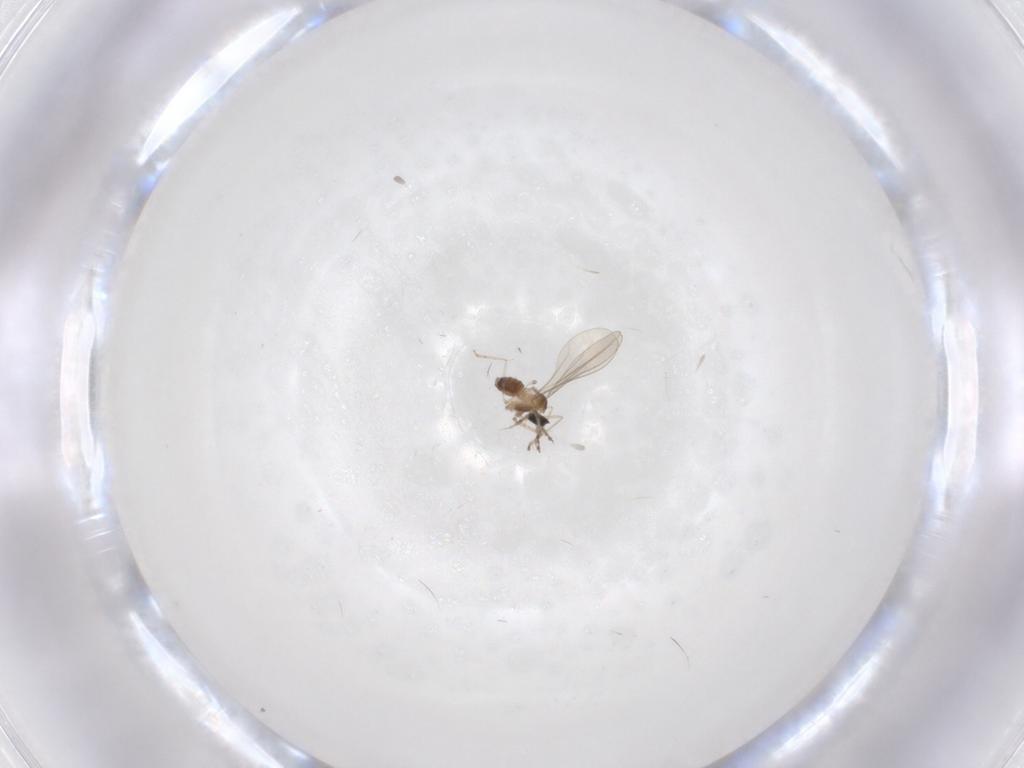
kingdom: Animalia
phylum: Arthropoda
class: Insecta
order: Diptera
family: Cecidomyiidae
